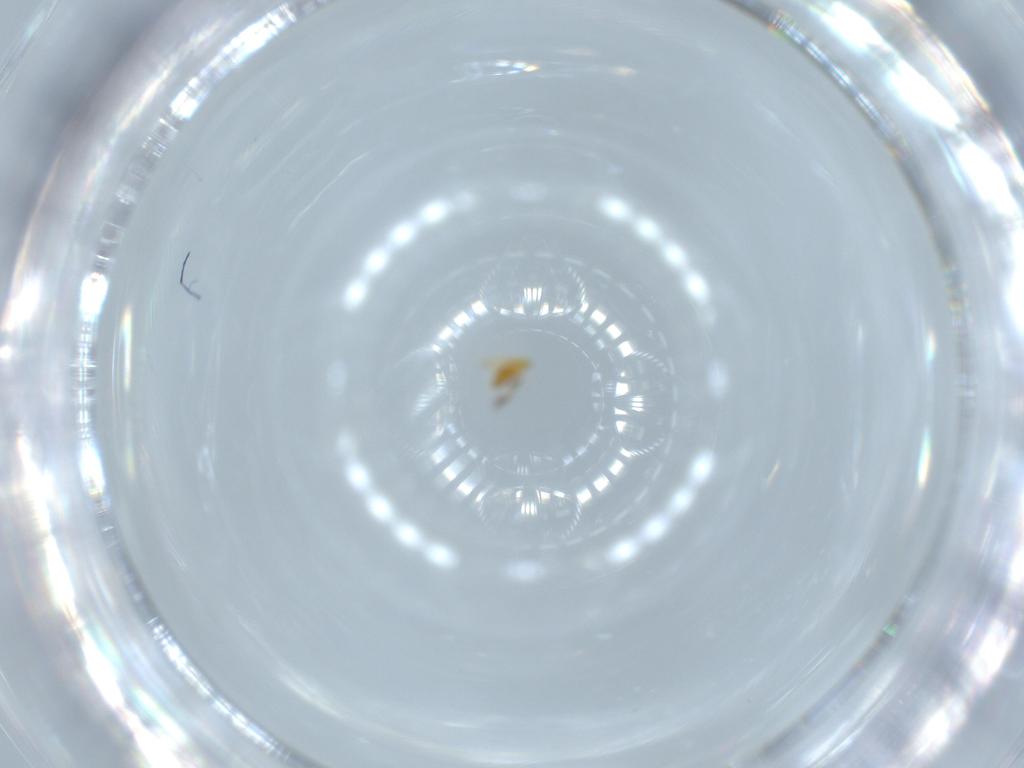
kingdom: Animalia
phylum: Arthropoda
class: Insecta
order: Hymenoptera
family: Signiphoridae
